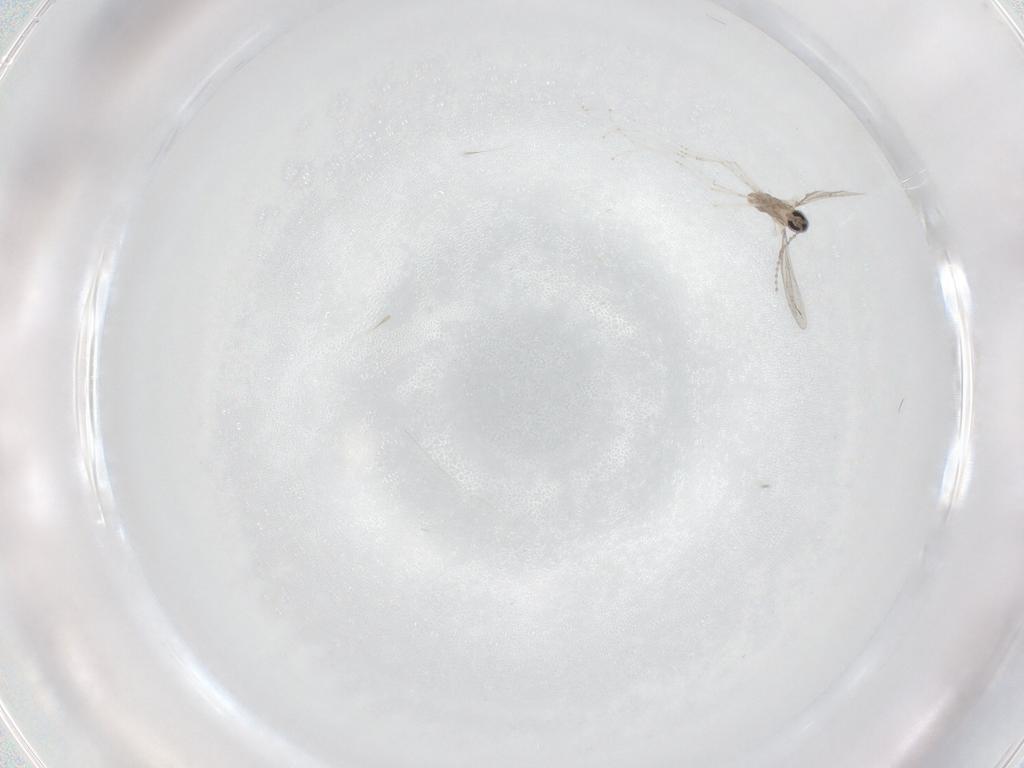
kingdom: Animalia
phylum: Arthropoda
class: Insecta
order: Diptera
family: Cecidomyiidae
